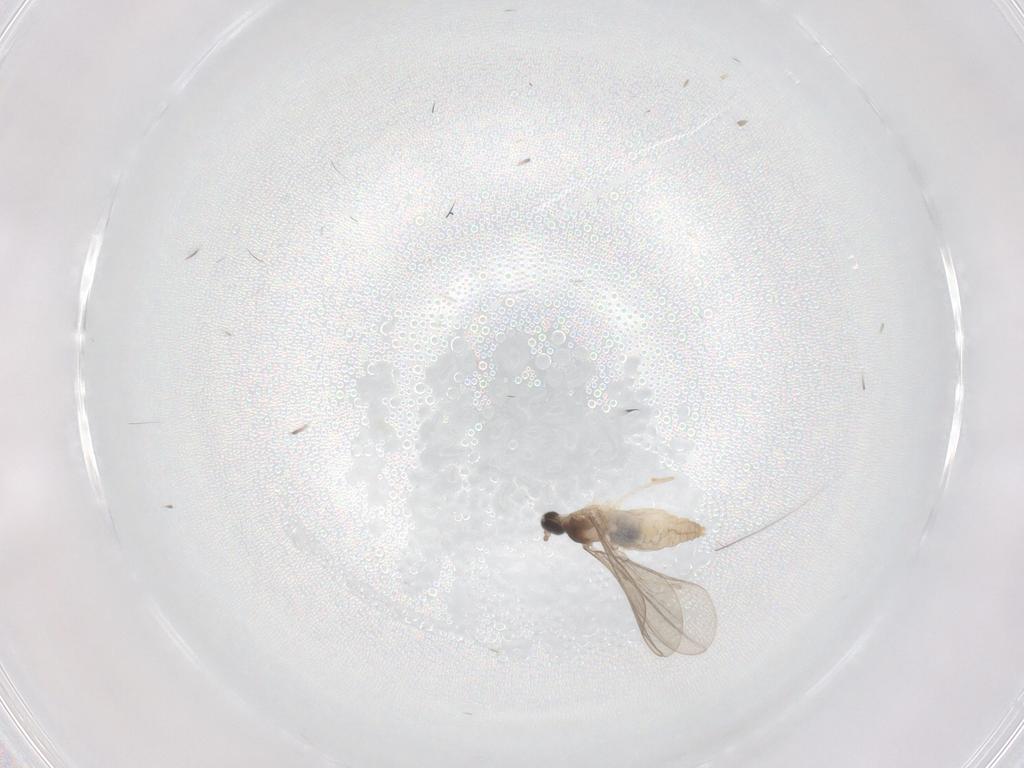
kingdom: Animalia
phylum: Arthropoda
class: Insecta
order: Diptera
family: Cecidomyiidae
